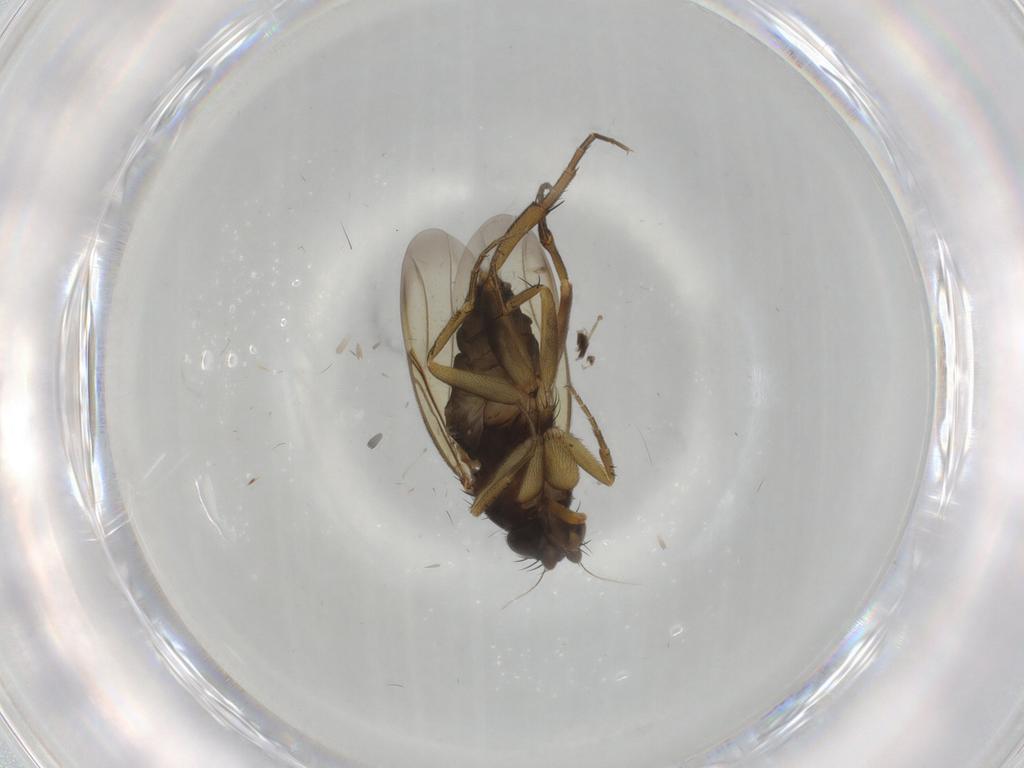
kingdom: Animalia
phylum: Arthropoda
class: Insecta
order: Diptera
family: Phoridae
